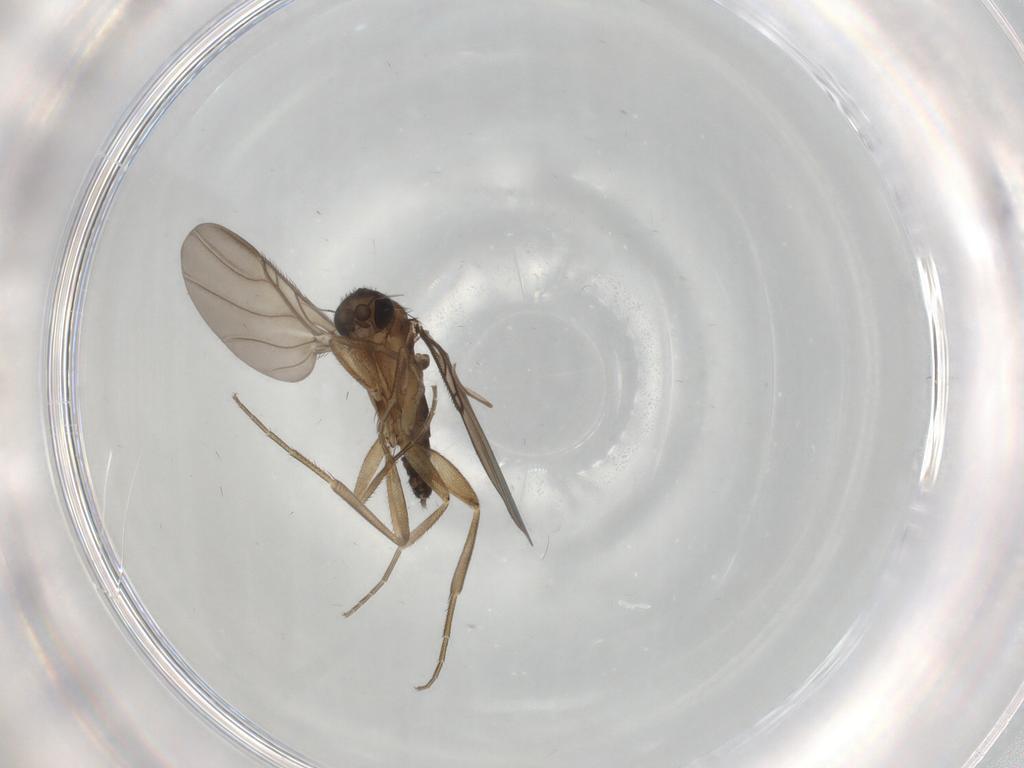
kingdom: Animalia
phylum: Arthropoda
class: Insecta
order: Diptera
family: Phoridae
